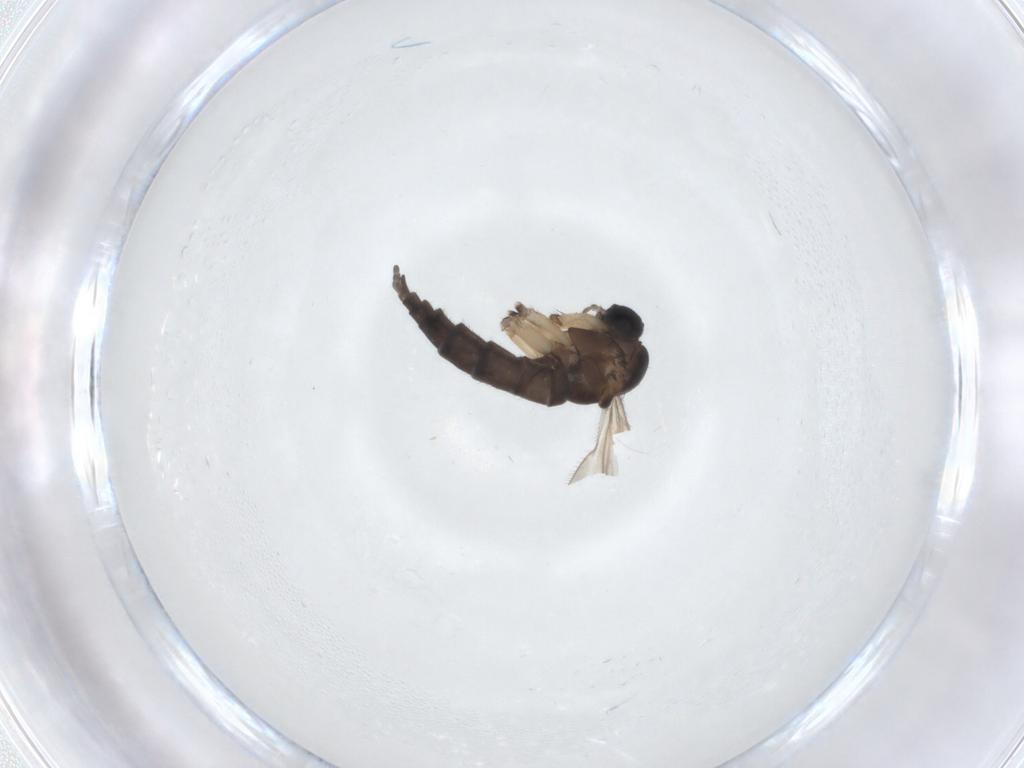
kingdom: Animalia
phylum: Arthropoda
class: Insecta
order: Diptera
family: Sciaridae
